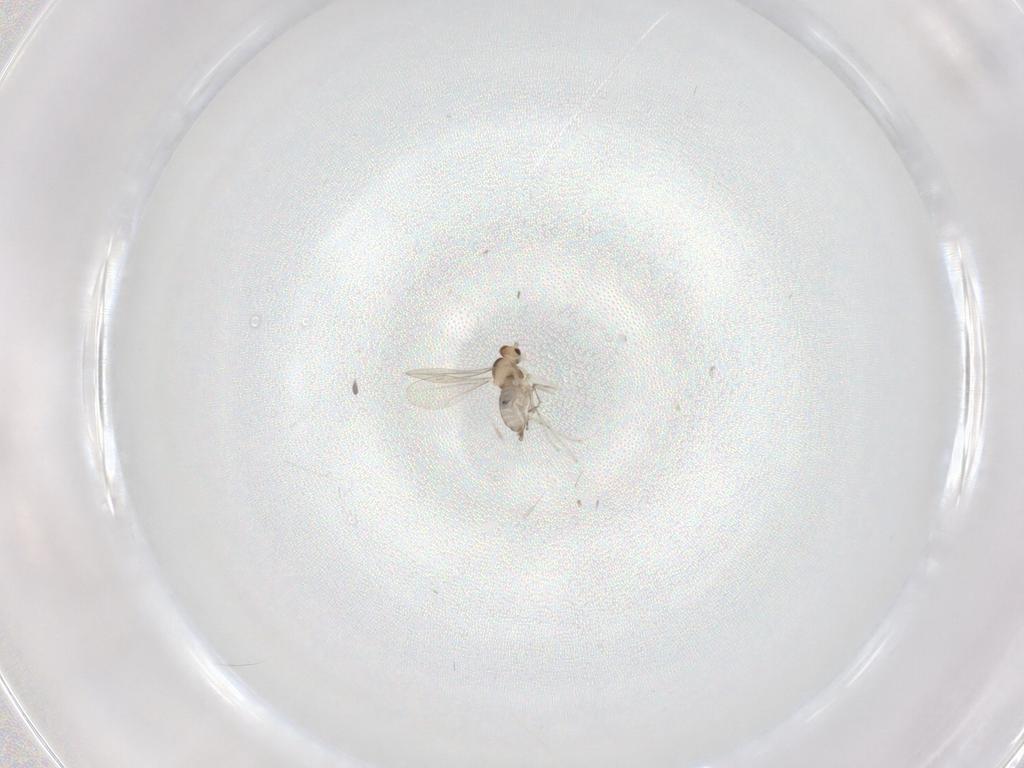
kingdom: Animalia
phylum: Arthropoda
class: Insecta
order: Diptera
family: Cecidomyiidae
